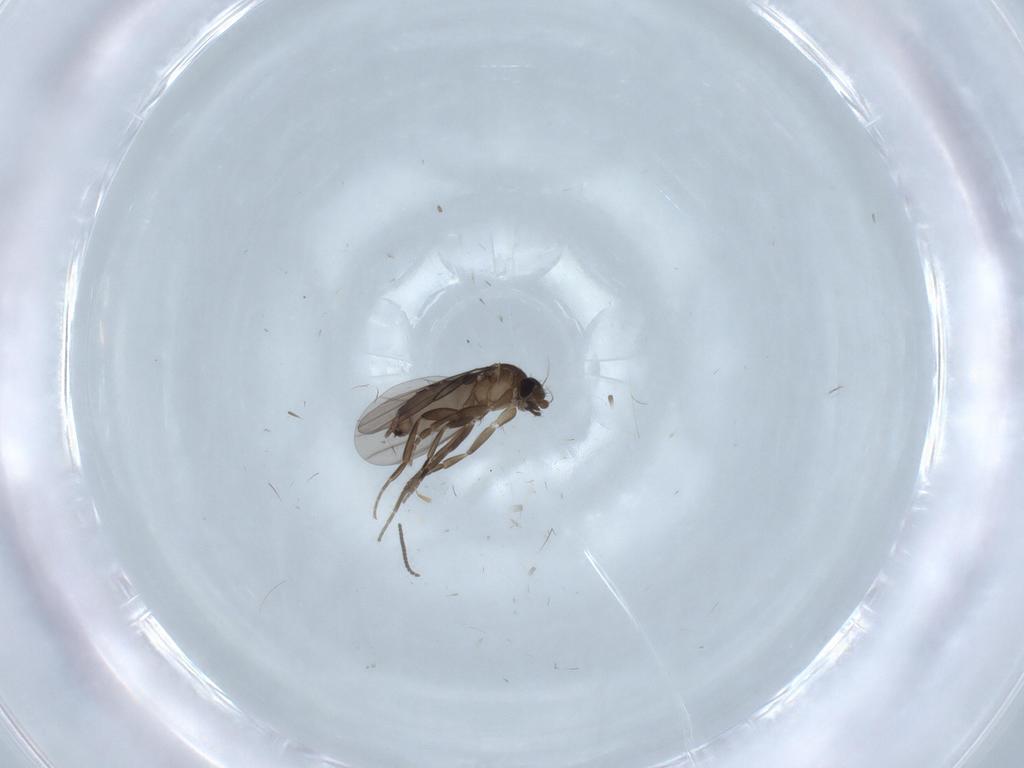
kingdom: Animalia
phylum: Arthropoda
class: Insecta
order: Diptera
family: Phoridae
